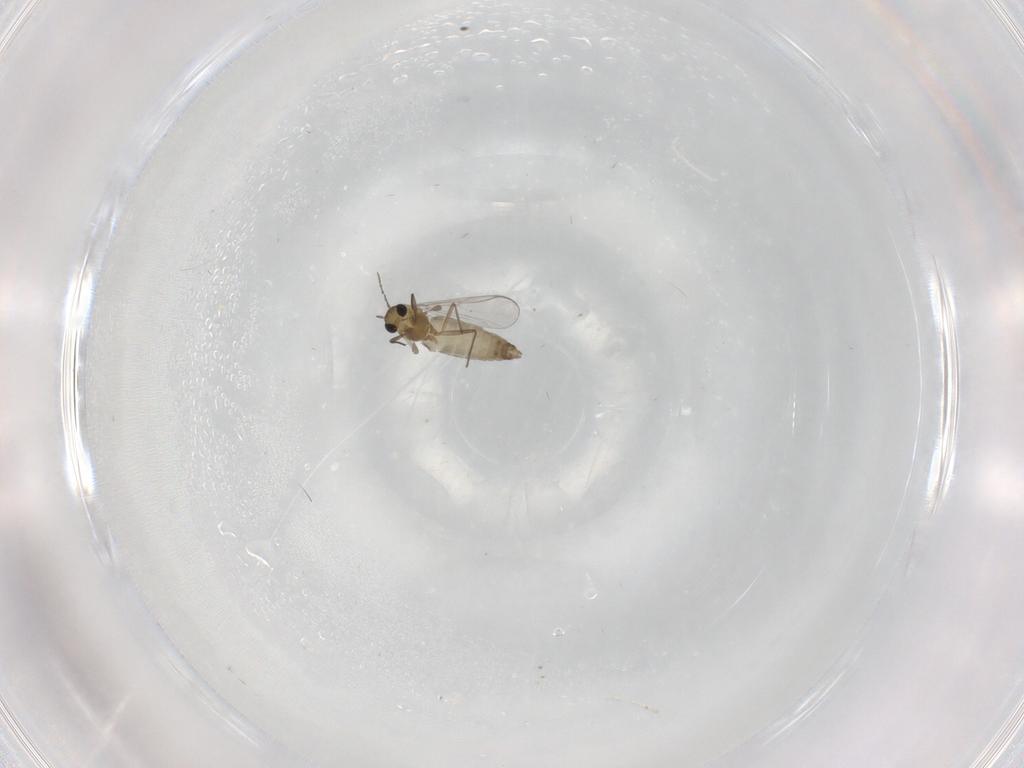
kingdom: Animalia
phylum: Arthropoda
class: Insecta
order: Diptera
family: Chironomidae
